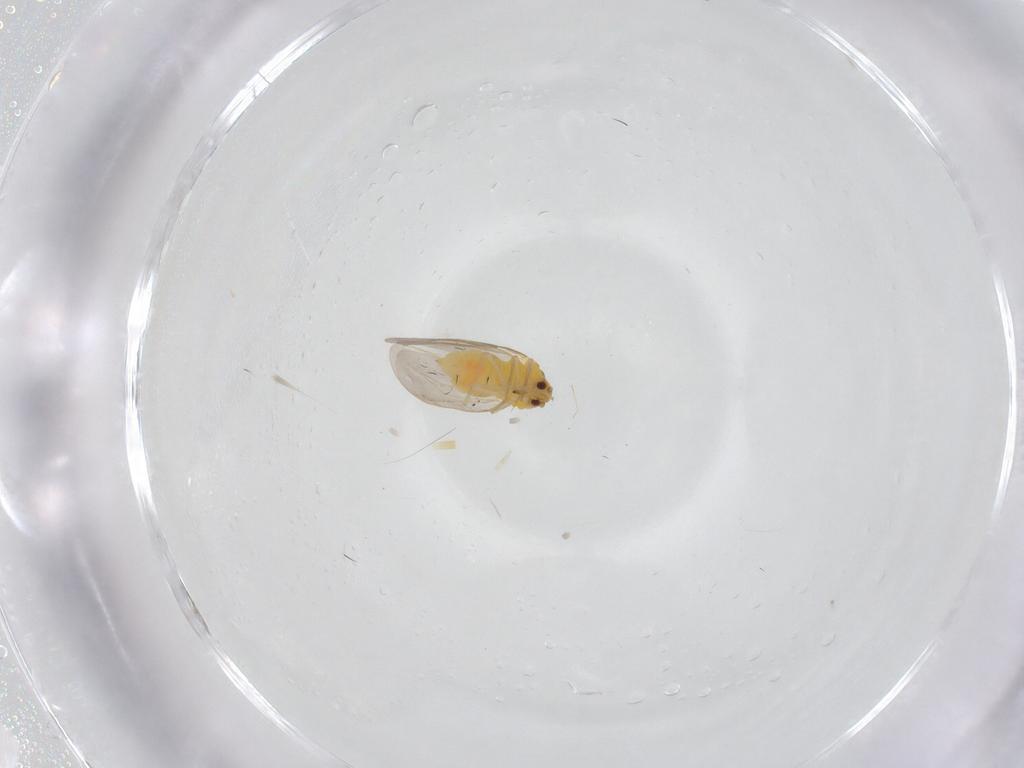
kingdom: Animalia
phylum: Arthropoda
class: Insecta
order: Hemiptera
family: Aleyrodidae
